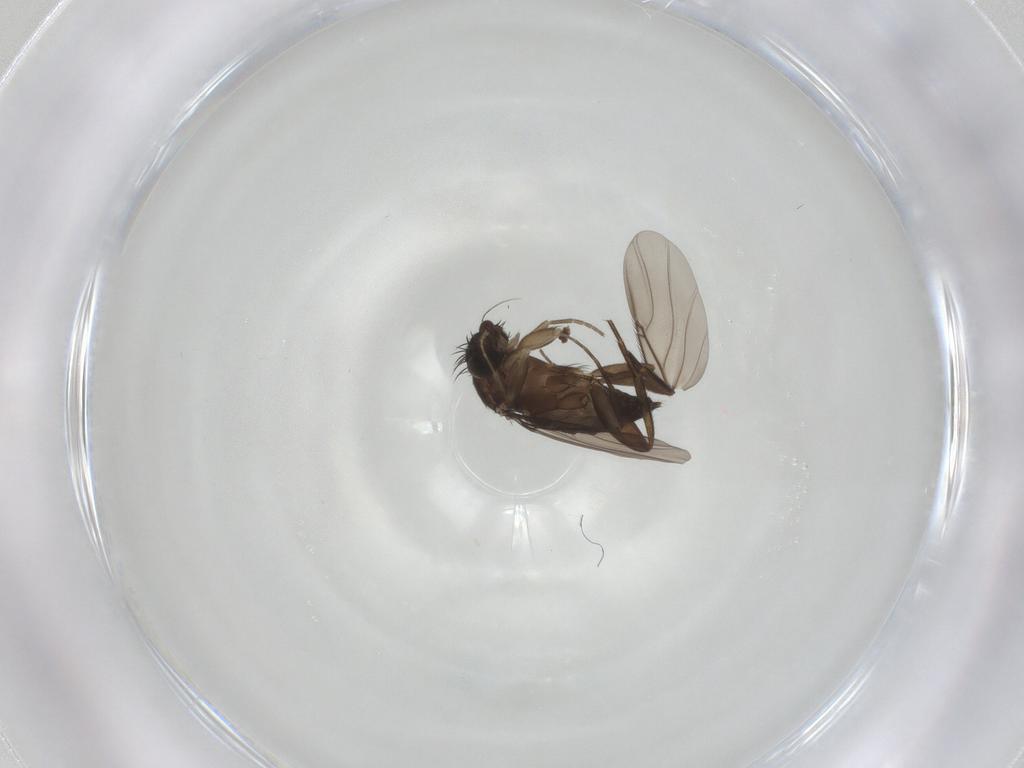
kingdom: Animalia
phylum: Arthropoda
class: Insecta
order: Diptera
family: Phoridae
